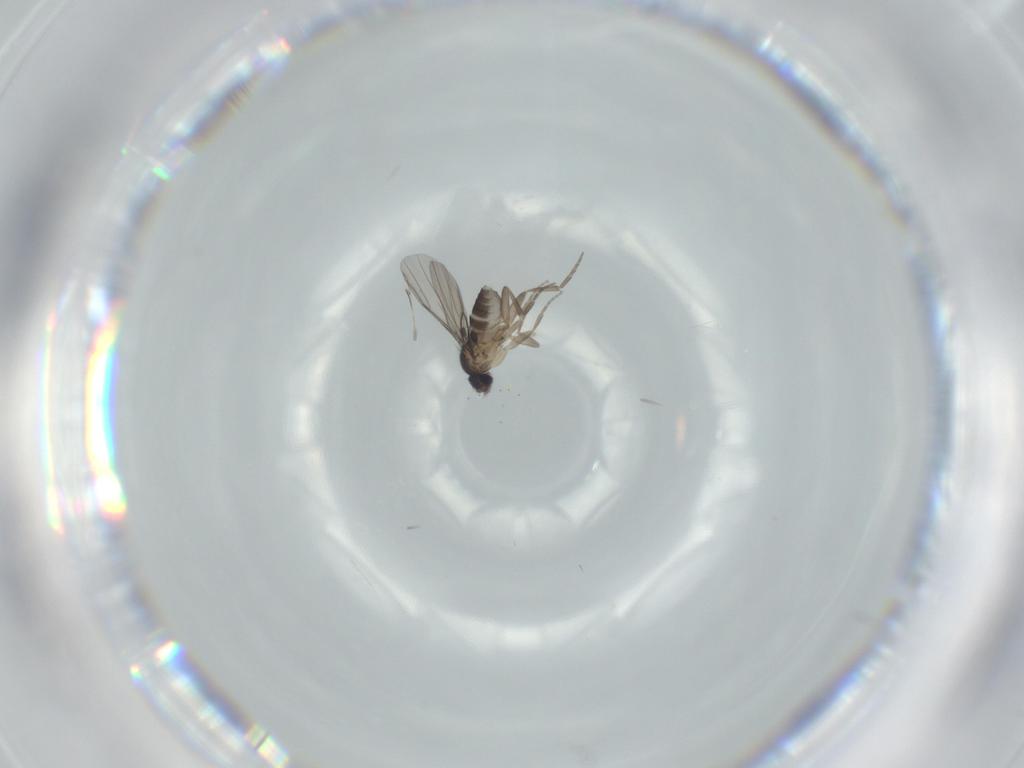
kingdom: Animalia
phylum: Arthropoda
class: Insecta
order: Diptera
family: Phoridae
